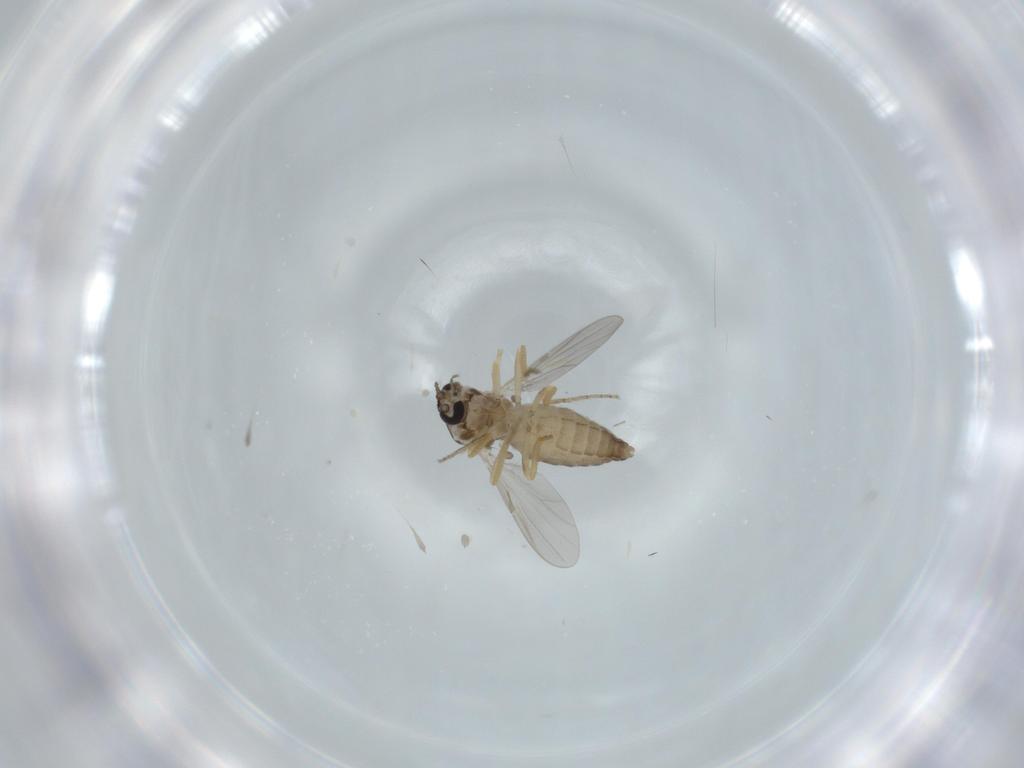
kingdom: Animalia
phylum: Arthropoda
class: Insecta
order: Diptera
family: Ceratopogonidae
